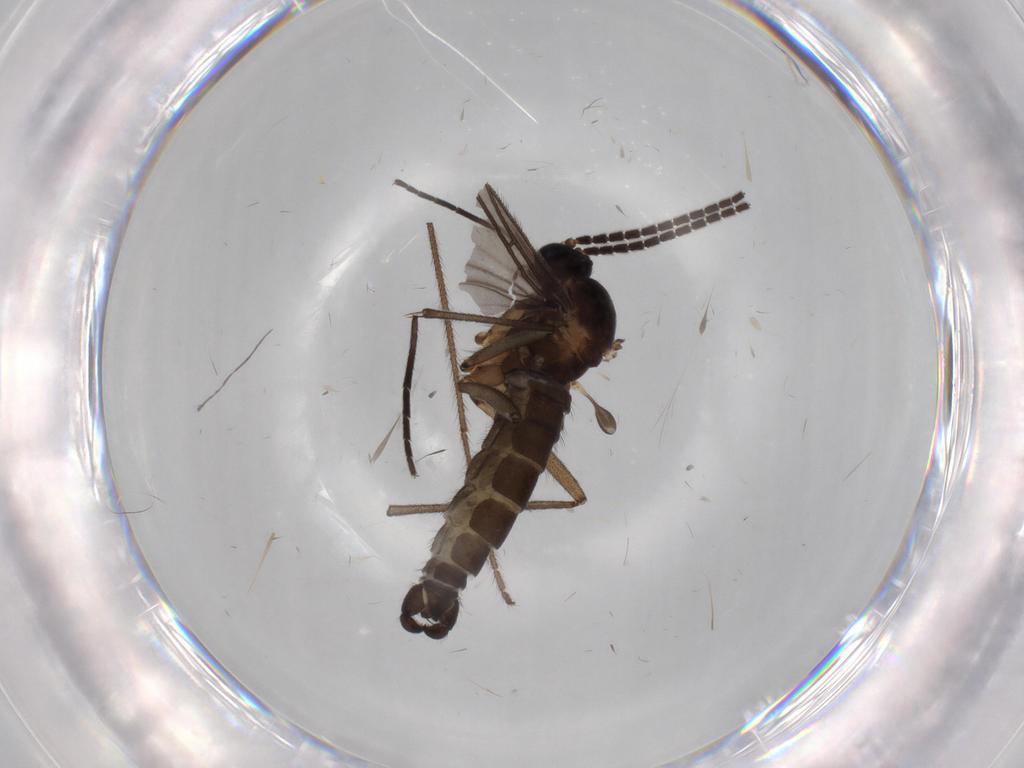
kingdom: Animalia
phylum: Arthropoda
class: Insecta
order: Diptera
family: Sciaridae
